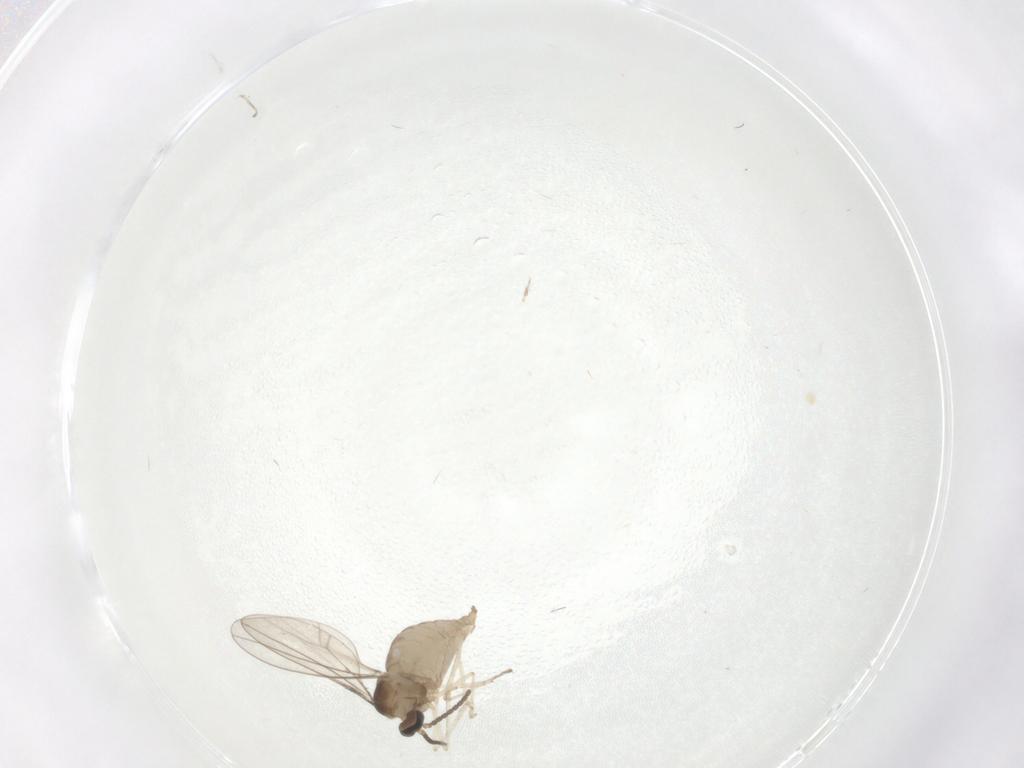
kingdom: Animalia
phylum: Arthropoda
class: Insecta
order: Diptera
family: Cecidomyiidae
